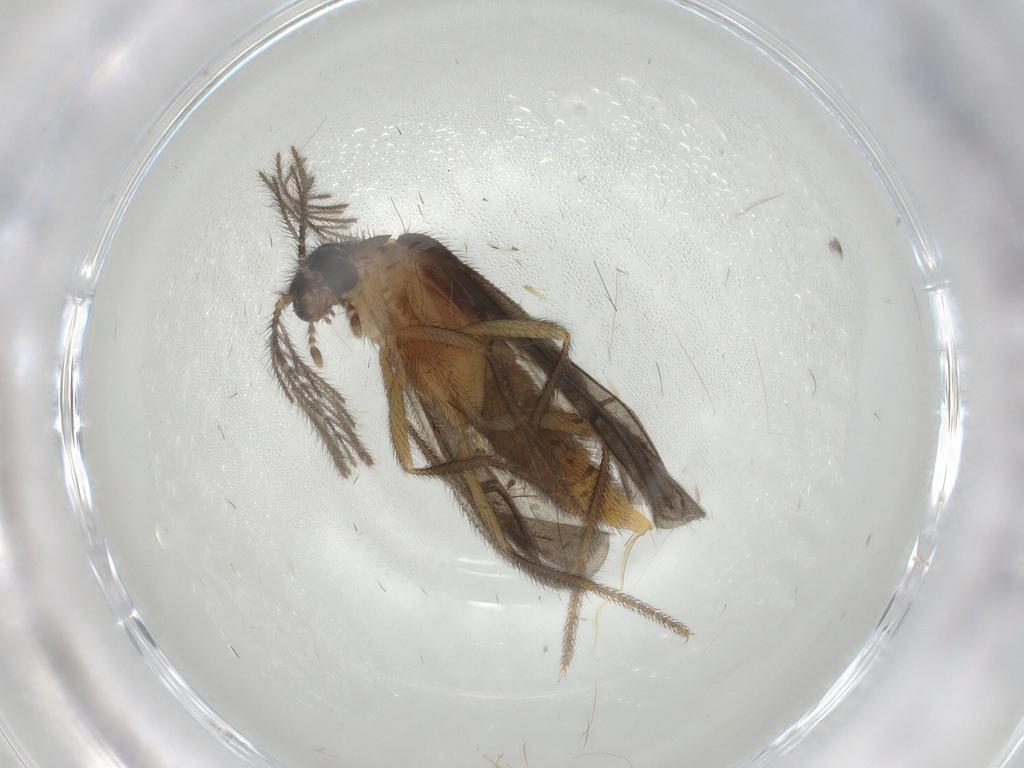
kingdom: Animalia
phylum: Arthropoda
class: Insecta
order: Coleoptera
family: Ptilodactylidae
